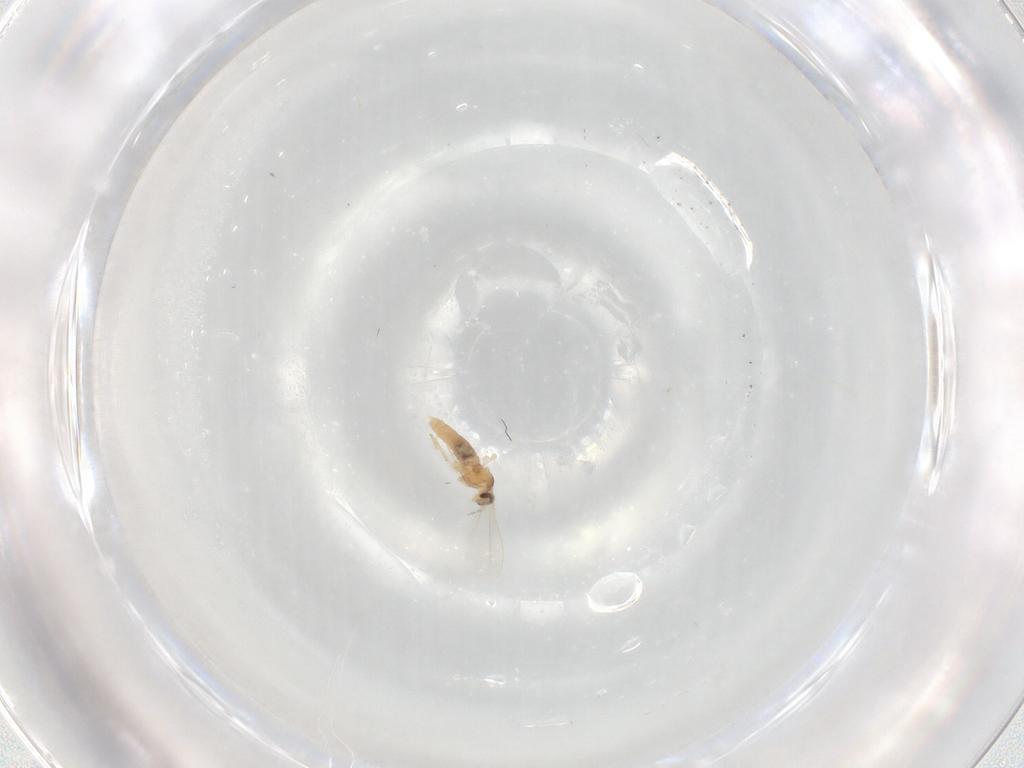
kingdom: Animalia
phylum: Arthropoda
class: Insecta
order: Diptera
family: Cecidomyiidae
